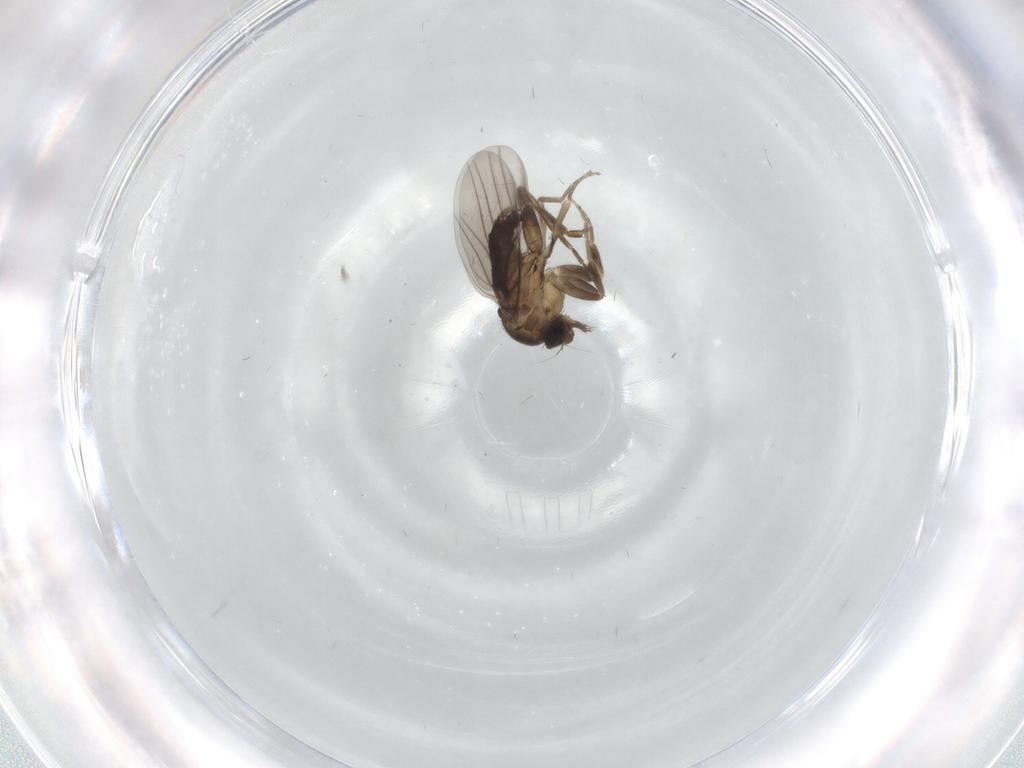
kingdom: Animalia
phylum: Arthropoda
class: Insecta
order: Diptera
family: Phoridae
